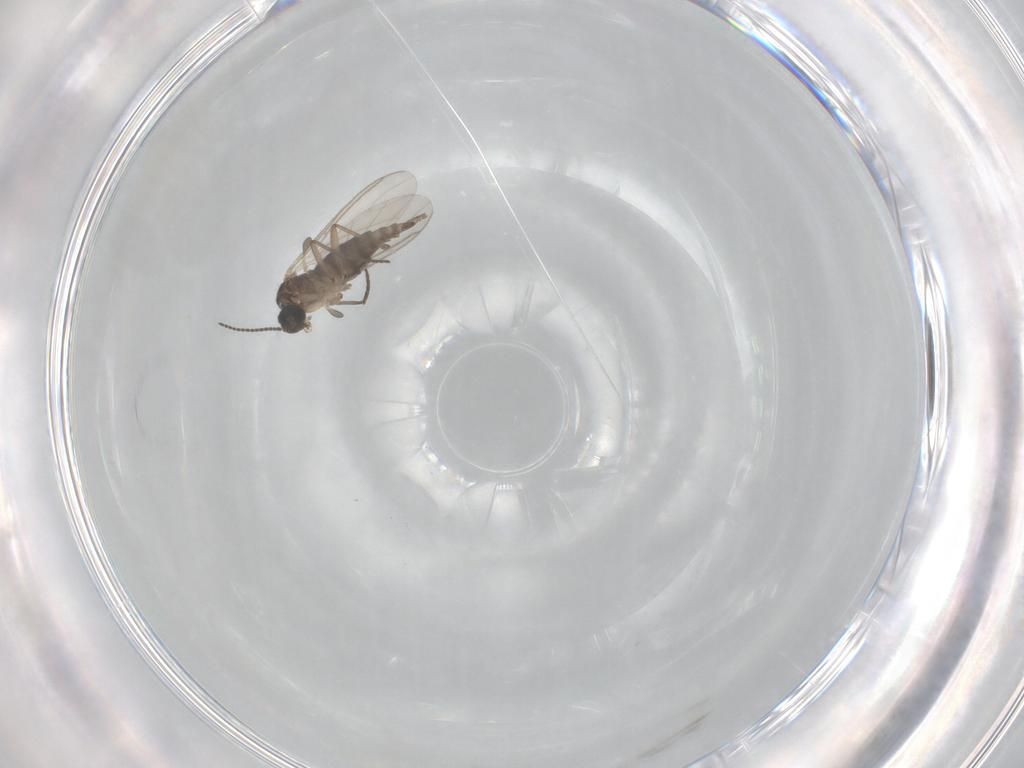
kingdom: Animalia
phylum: Arthropoda
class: Insecta
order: Diptera
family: Sciaridae
